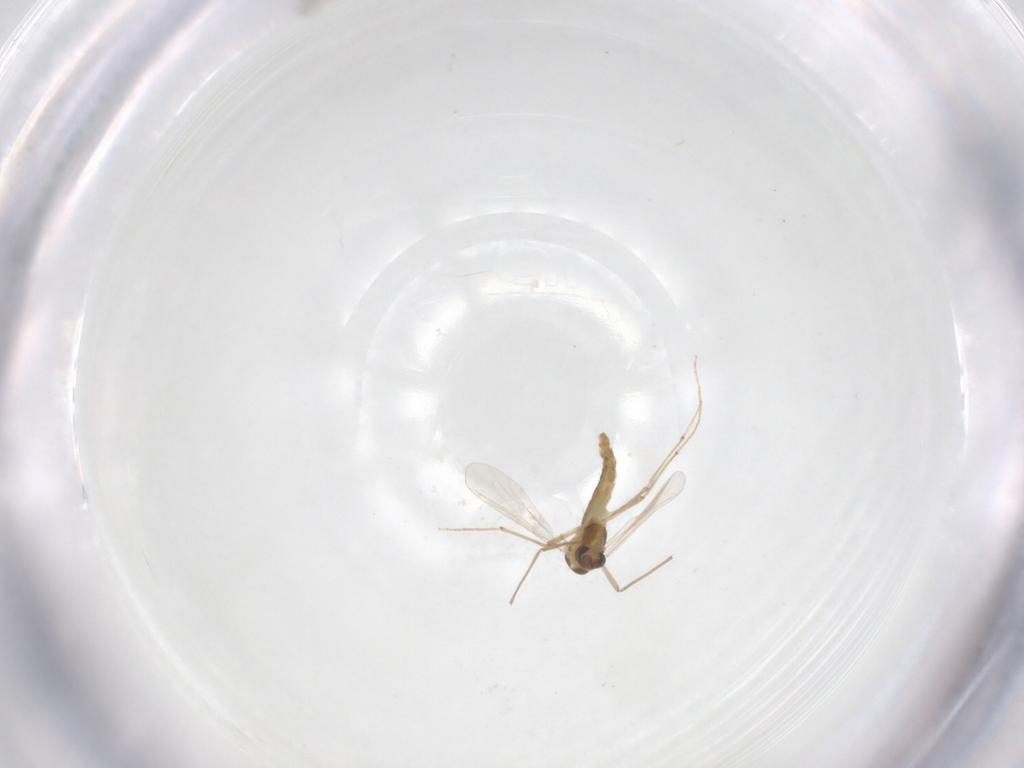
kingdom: Animalia
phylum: Arthropoda
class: Insecta
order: Diptera
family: Chironomidae
